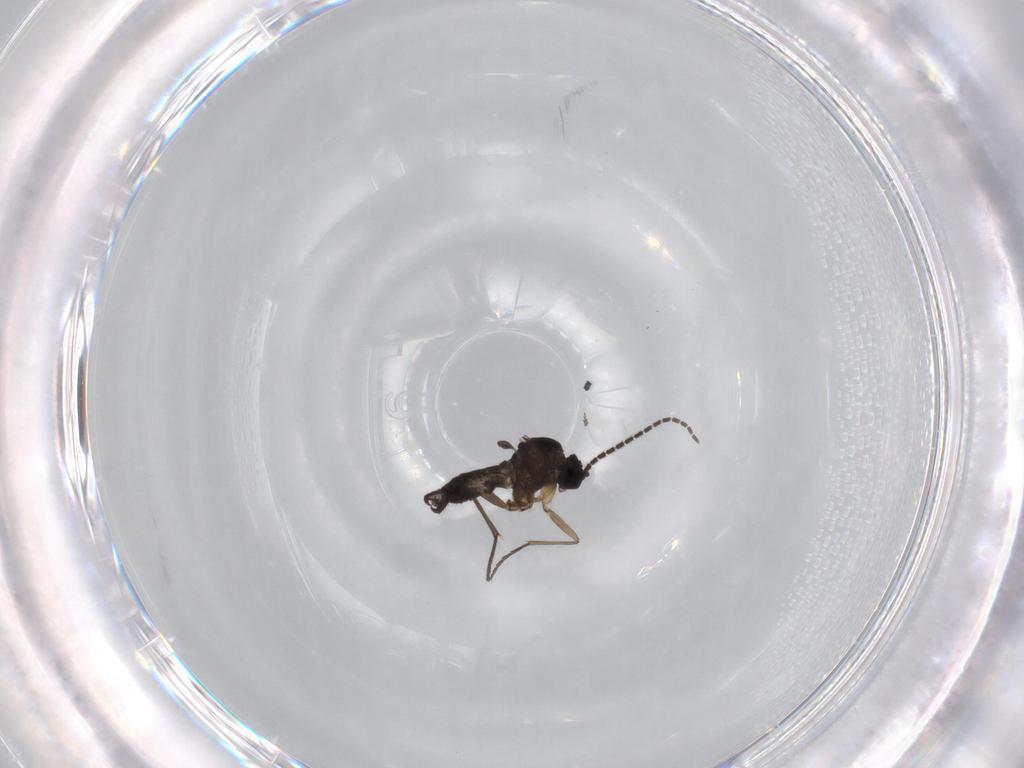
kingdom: Animalia
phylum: Arthropoda
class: Insecta
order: Diptera
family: Sciaridae
